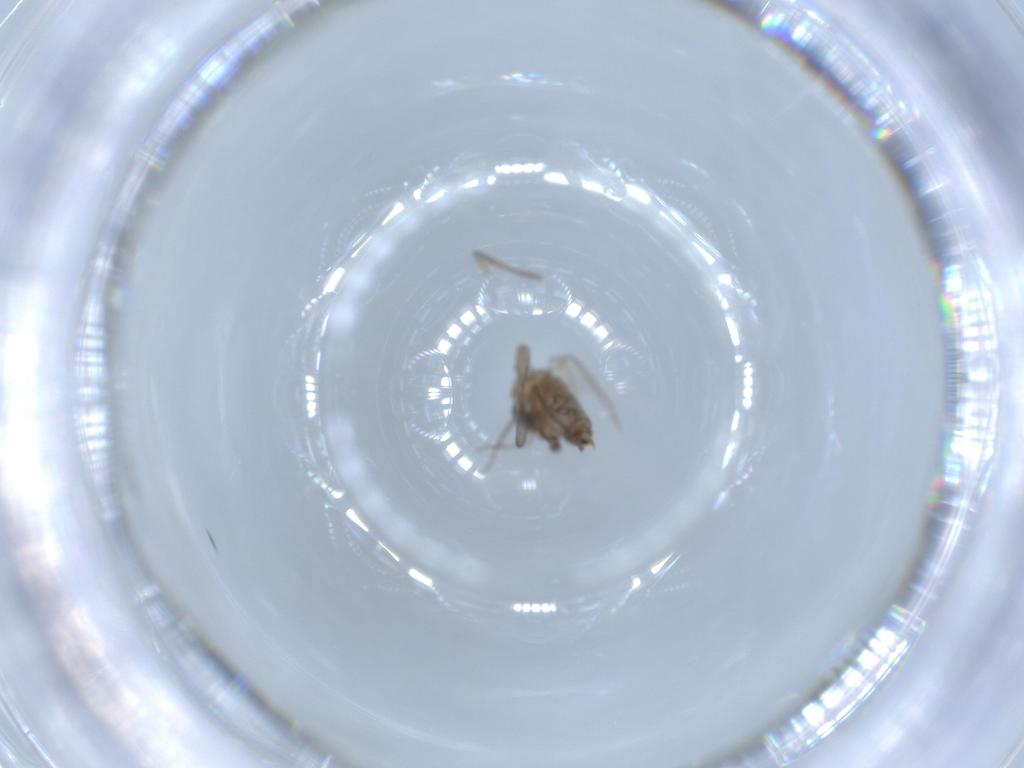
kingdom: Animalia
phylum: Arthropoda
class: Insecta
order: Diptera
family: Psychodidae
